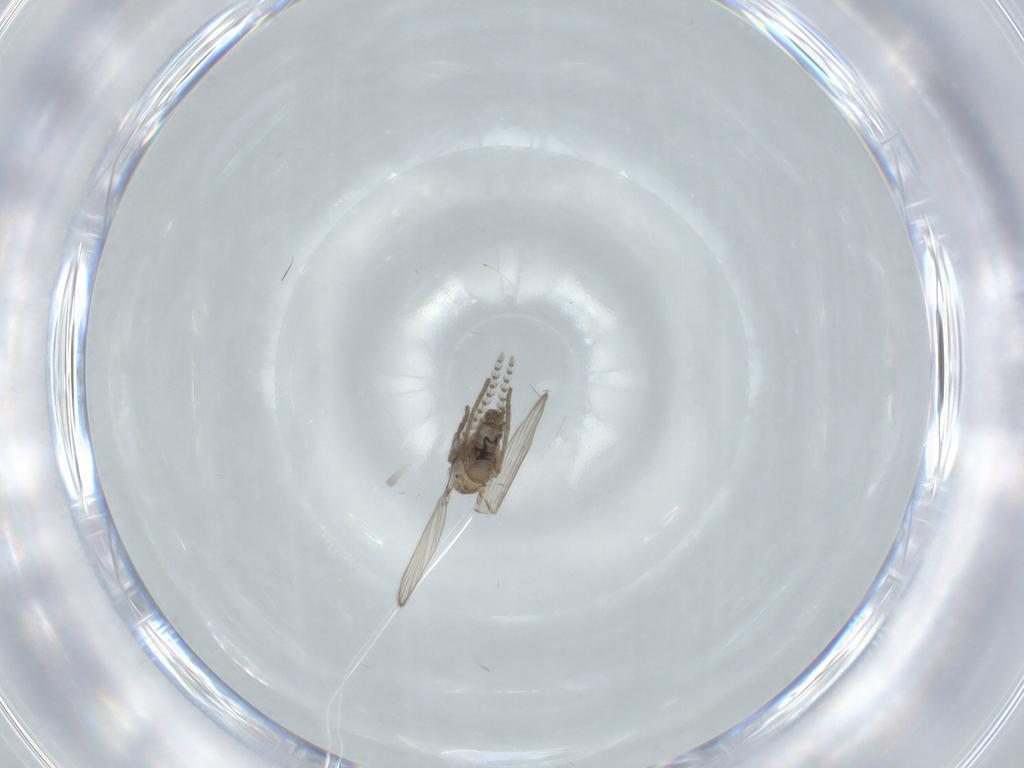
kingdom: Animalia
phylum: Arthropoda
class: Insecta
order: Diptera
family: Psychodidae
